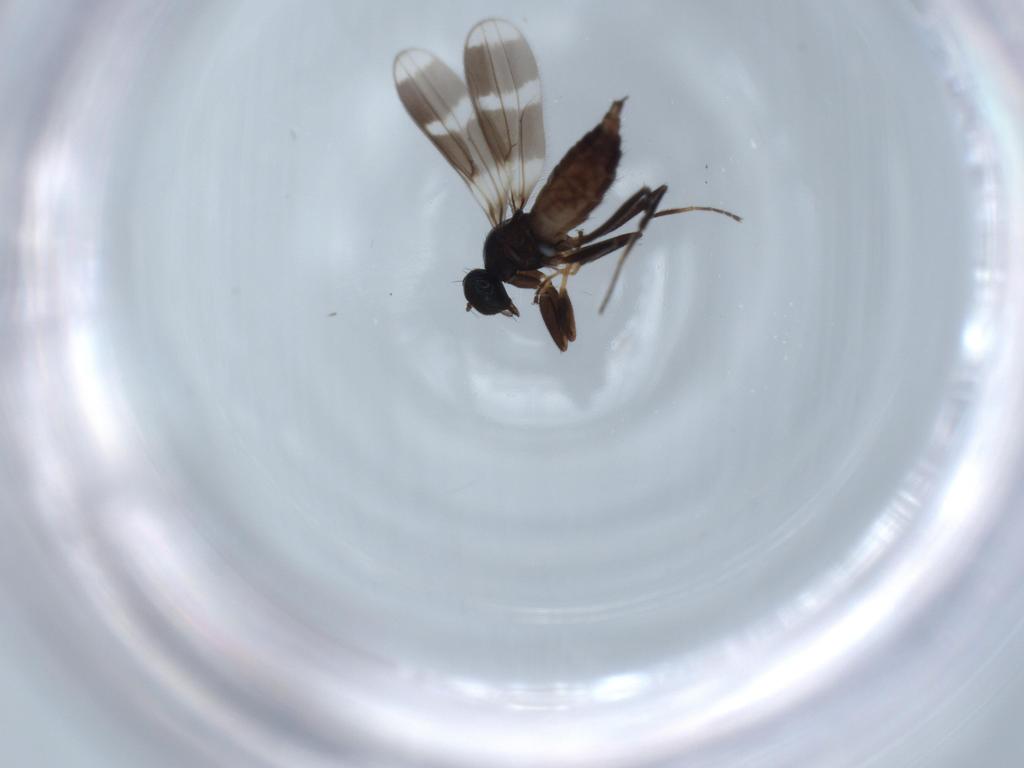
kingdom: Animalia
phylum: Arthropoda
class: Insecta
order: Diptera
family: Hybotidae
